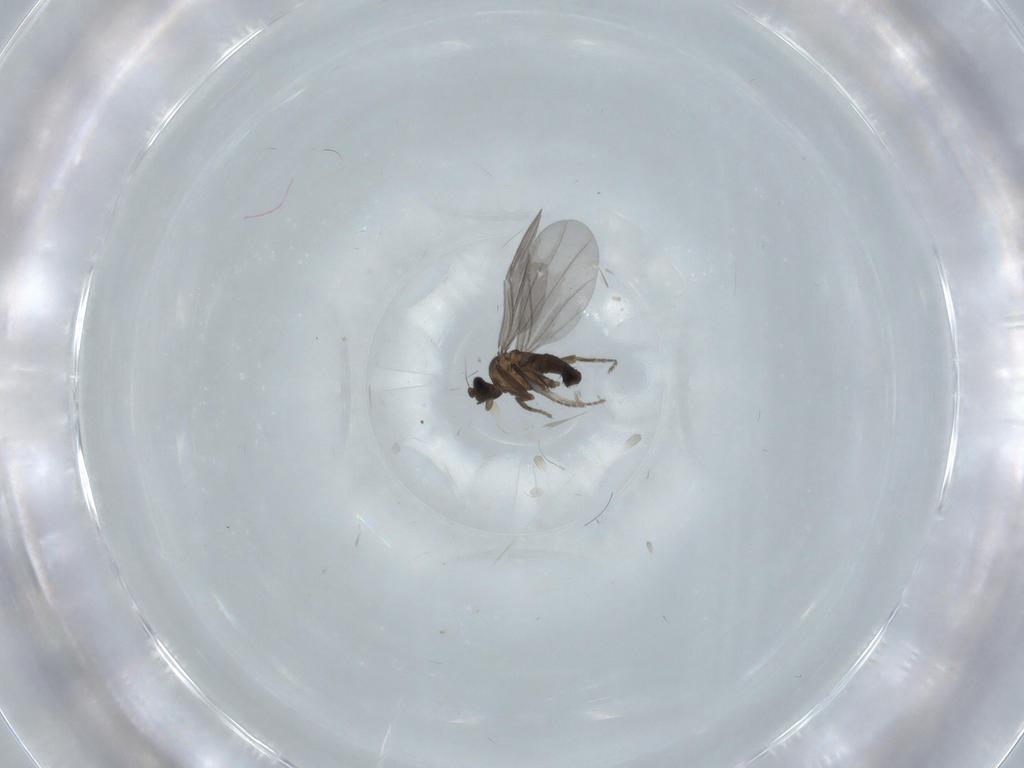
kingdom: Animalia
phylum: Arthropoda
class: Insecta
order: Diptera
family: Phoridae
